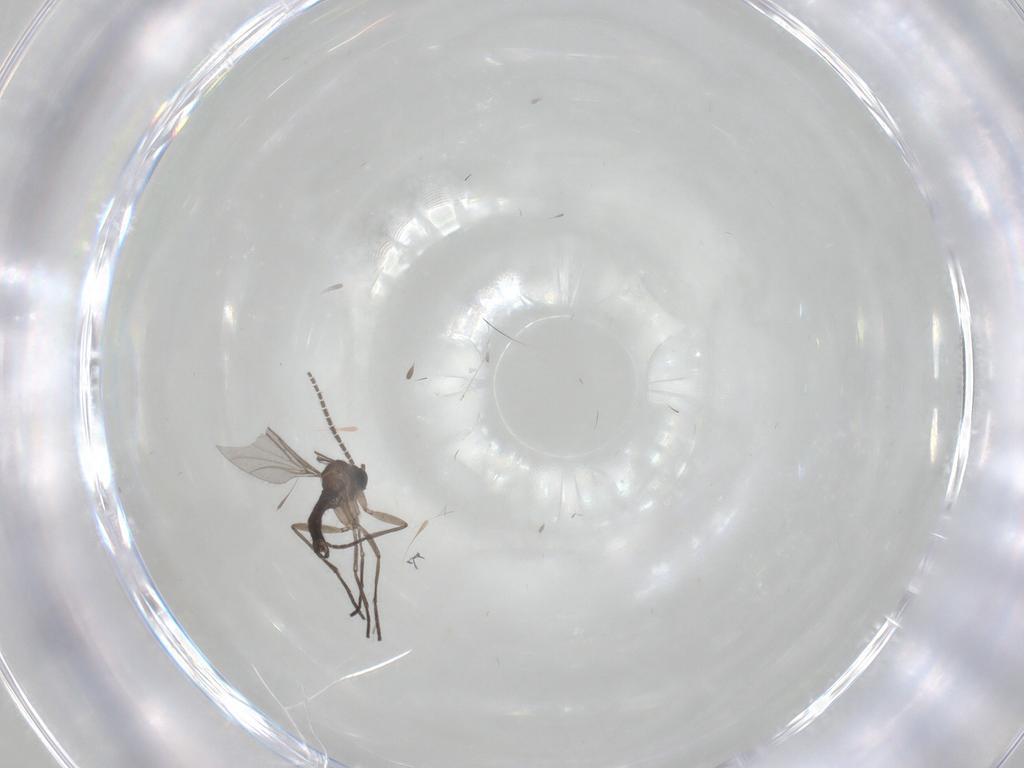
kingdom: Animalia
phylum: Arthropoda
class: Insecta
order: Diptera
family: Sciaridae
